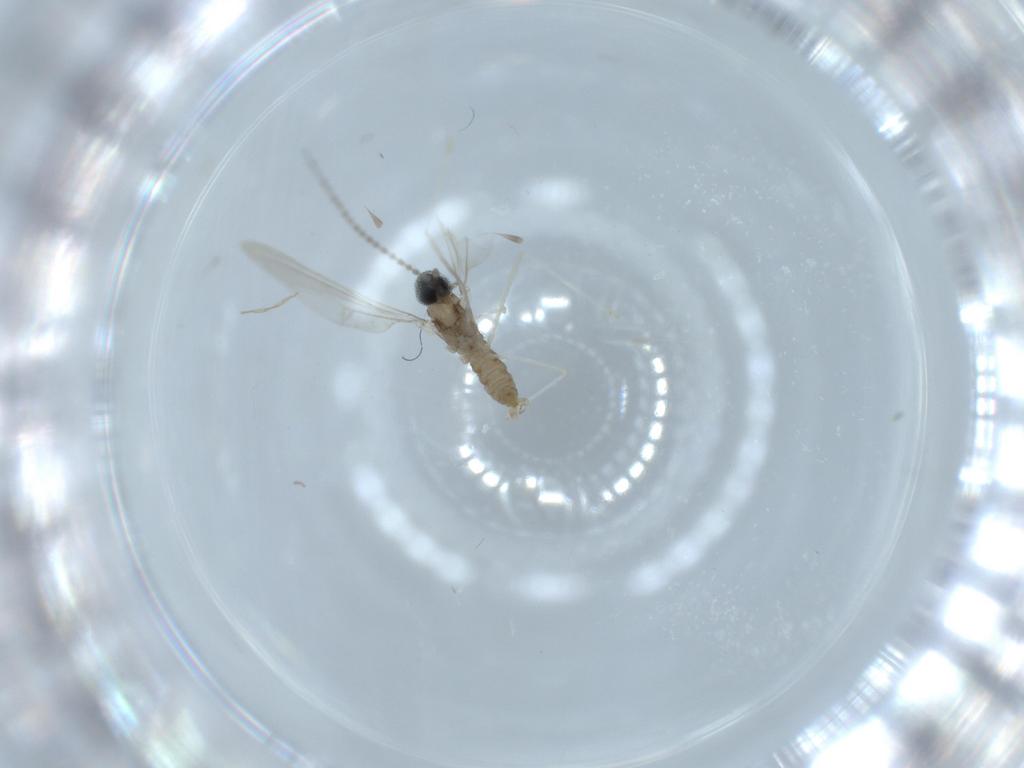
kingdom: Animalia
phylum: Arthropoda
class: Insecta
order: Diptera
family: Cecidomyiidae
